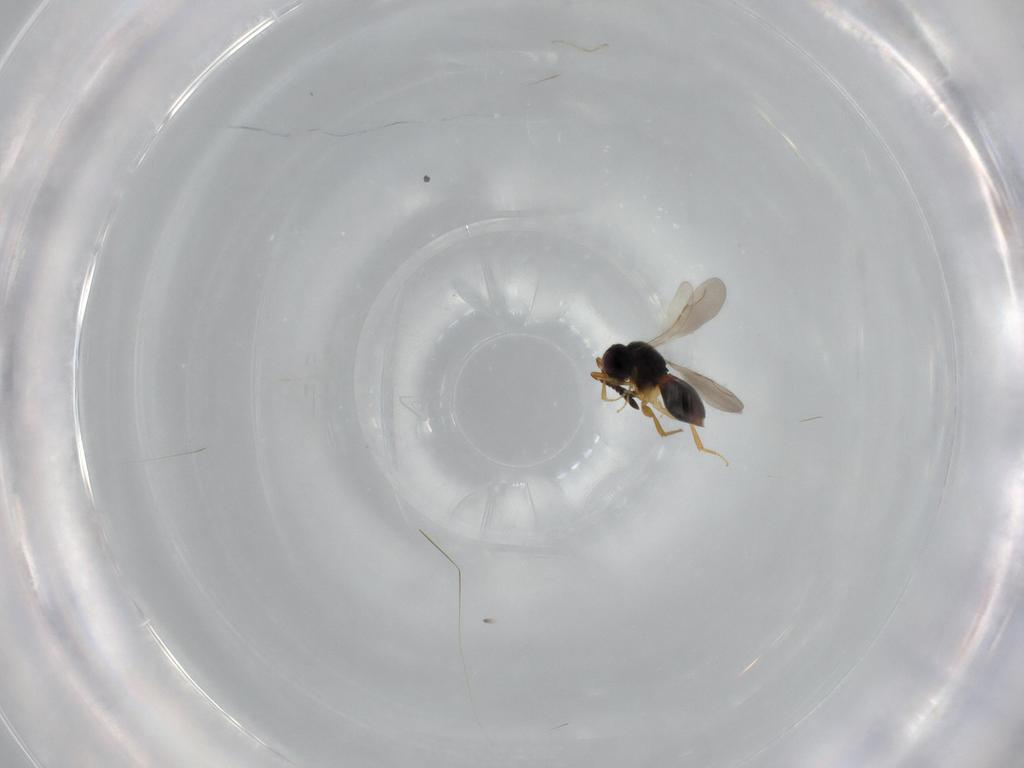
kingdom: Animalia
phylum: Arthropoda
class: Insecta
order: Hymenoptera
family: Ceraphronidae
